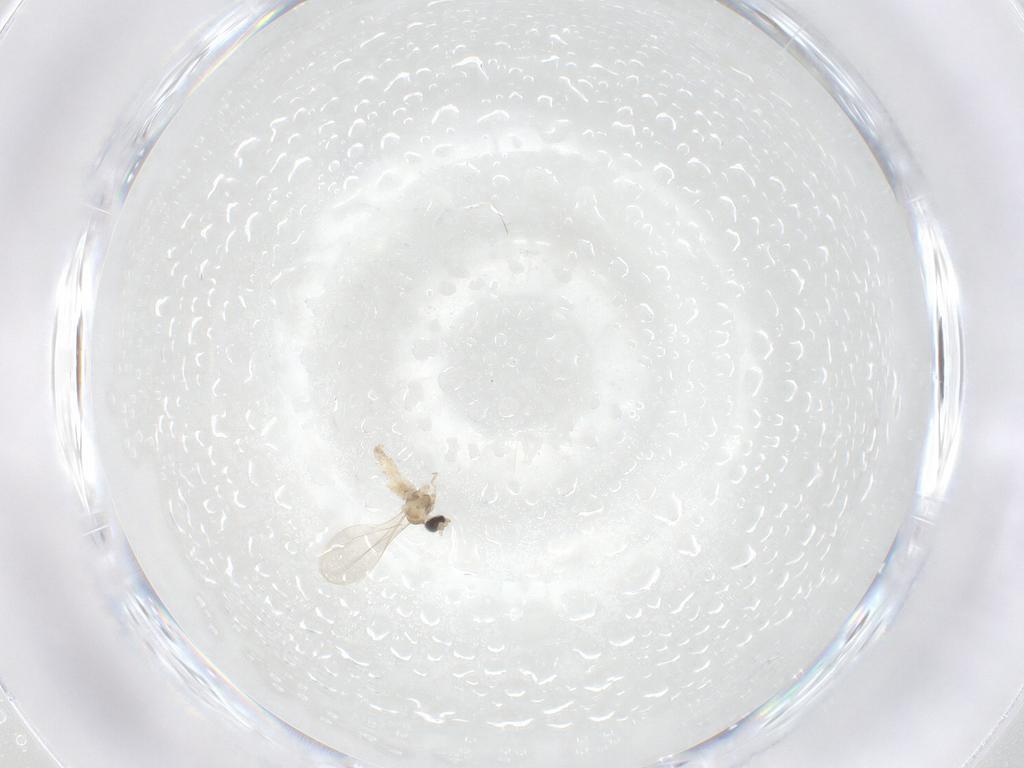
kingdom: Animalia
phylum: Arthropoda
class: Insecta
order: Diptera
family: Cecidomyiidae
